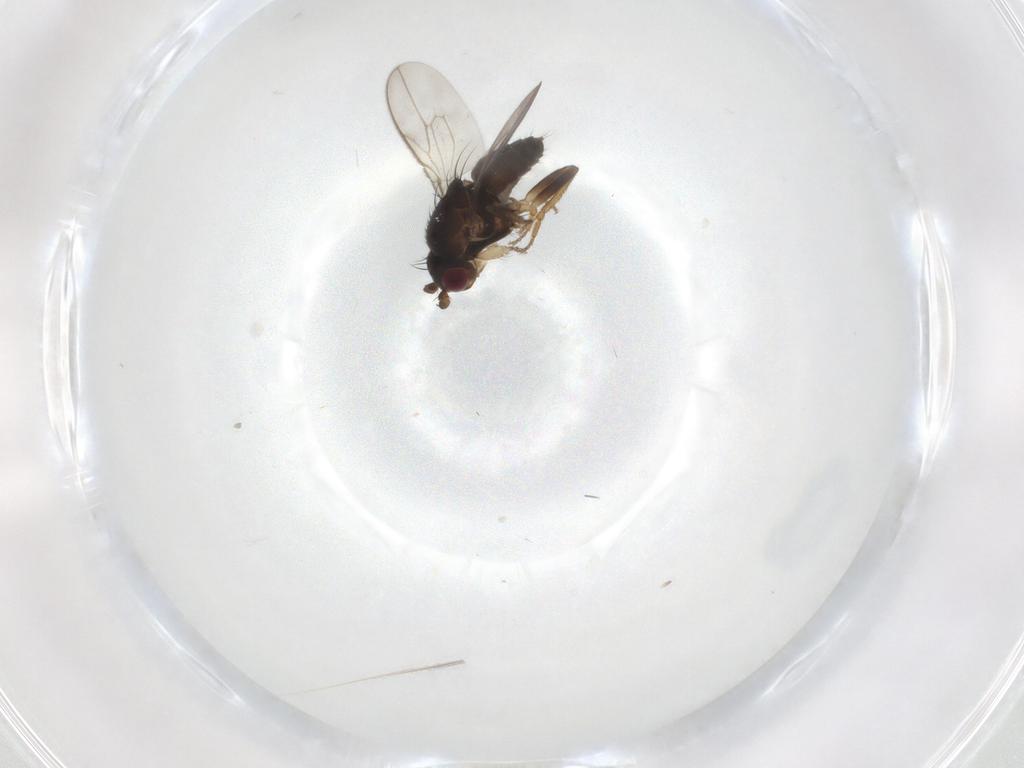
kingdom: Animalia
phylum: Arthropoda
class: Insecta
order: Diptera
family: Sphaeroceridae
